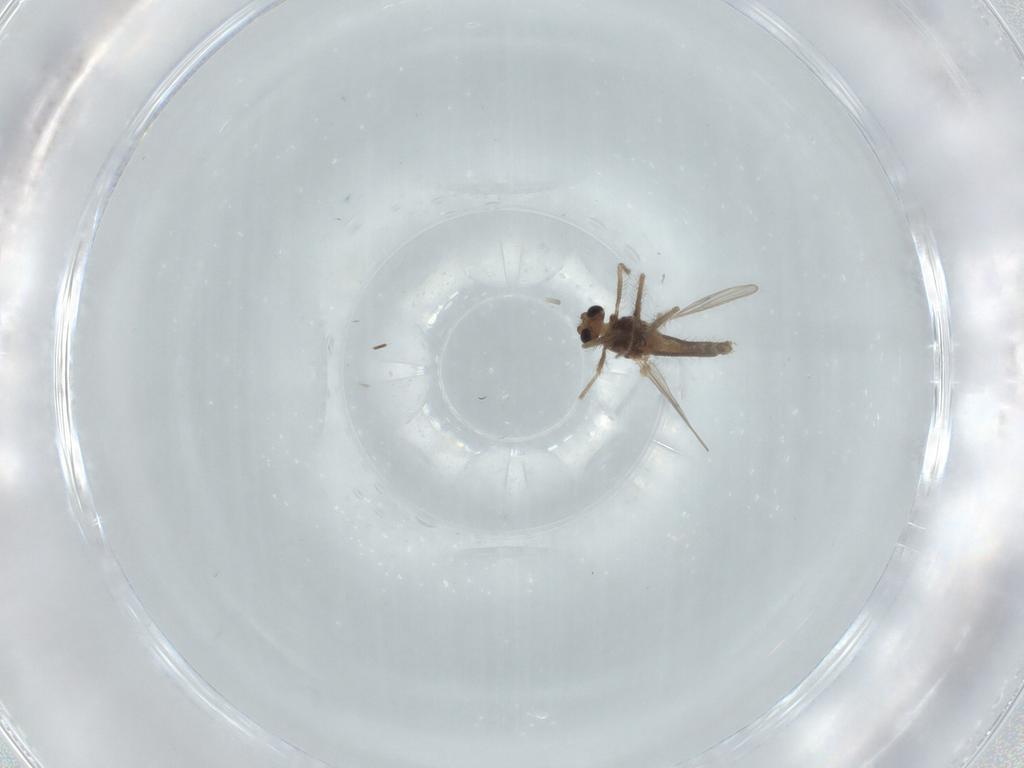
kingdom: Animalia
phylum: Arthropoda
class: Insecta
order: Diptera
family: Chironomidae
